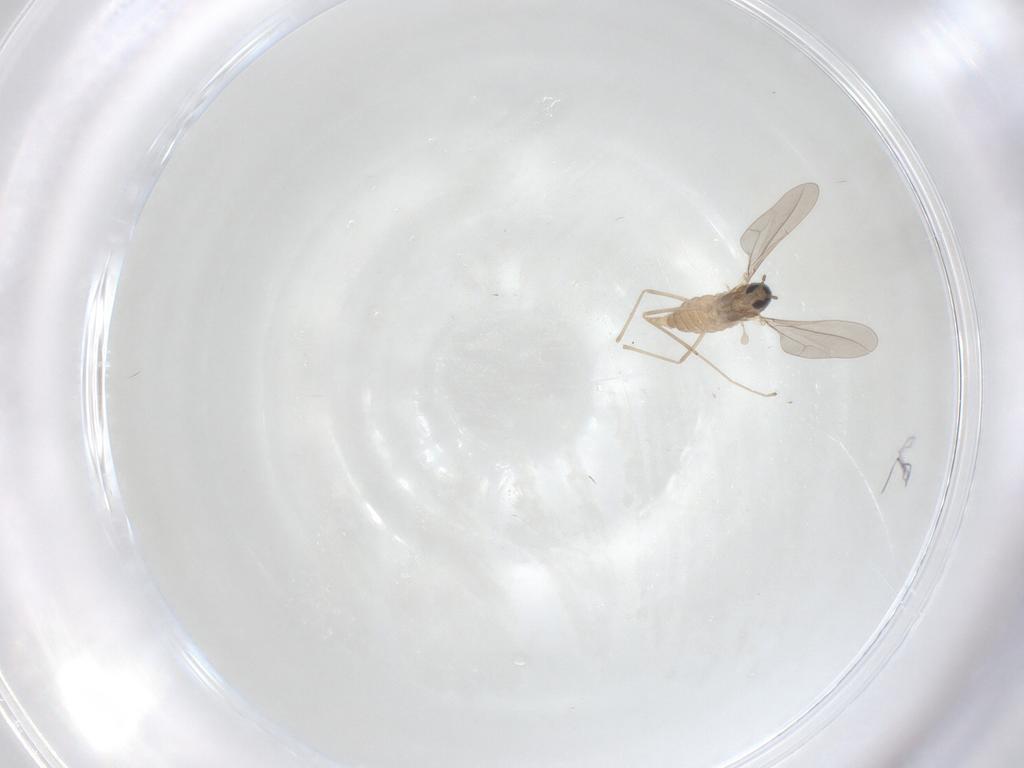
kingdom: Animalia
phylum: Arthropoda
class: Insecta
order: Diptera
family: Cecidomyiidae
